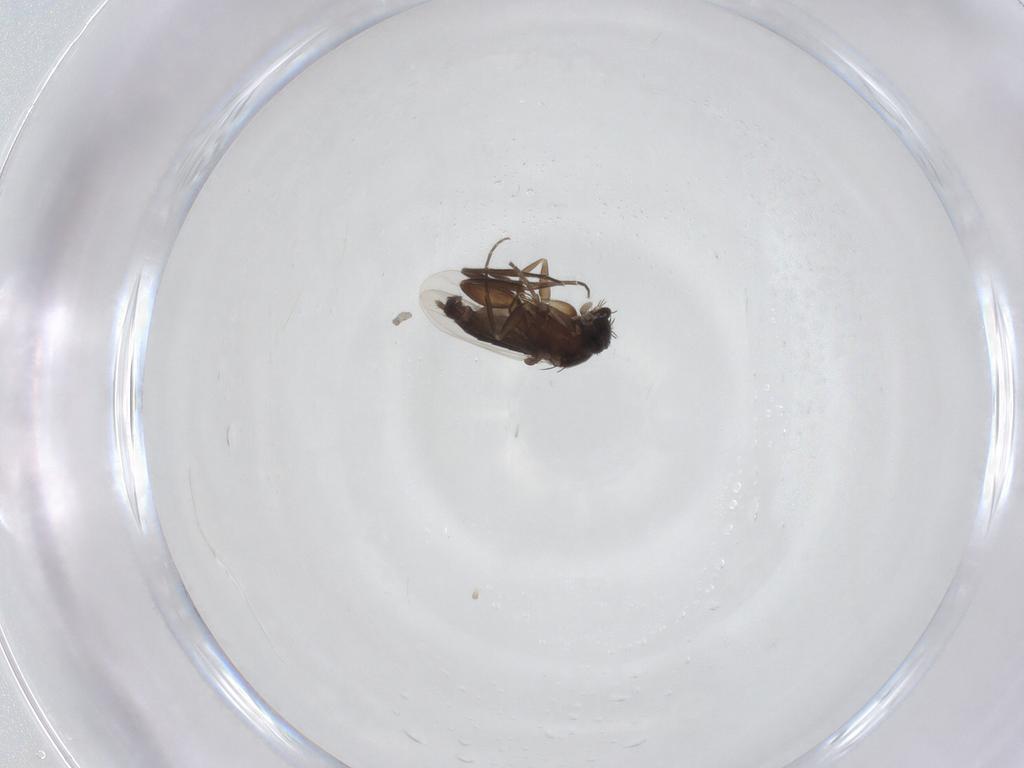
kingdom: Animalia
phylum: Arthropoda
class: Insecta
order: Diptera
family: Phoridae
